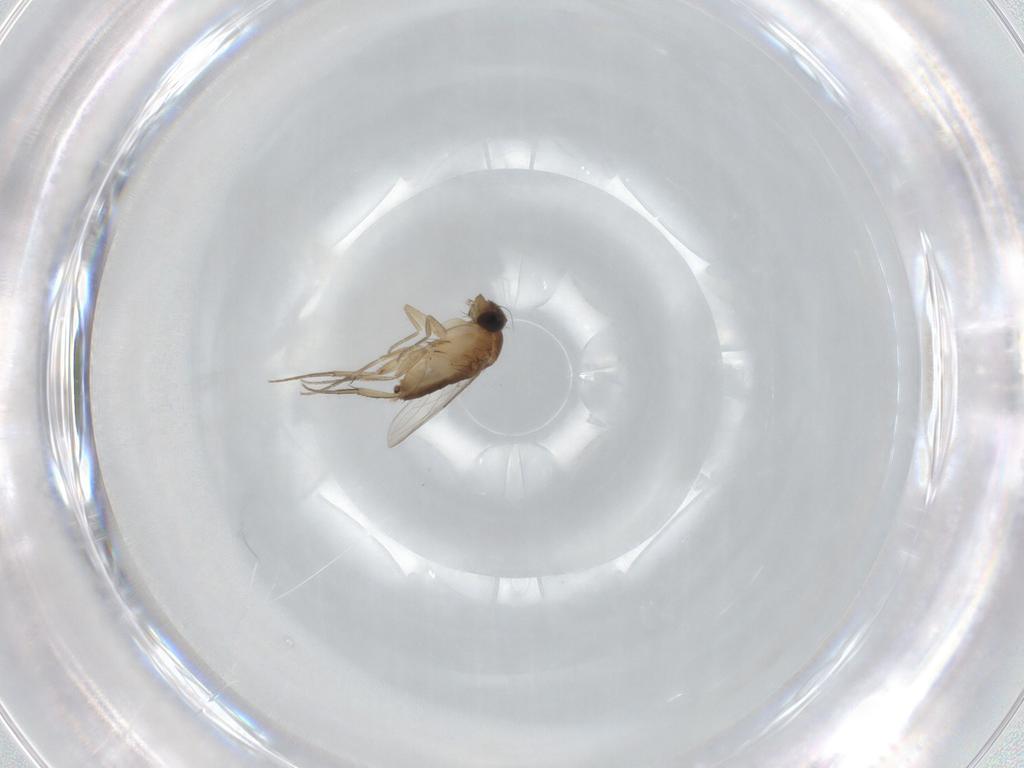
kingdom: Animalia
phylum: Arthropoda
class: Insecta
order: Diptera
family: Phoridae
